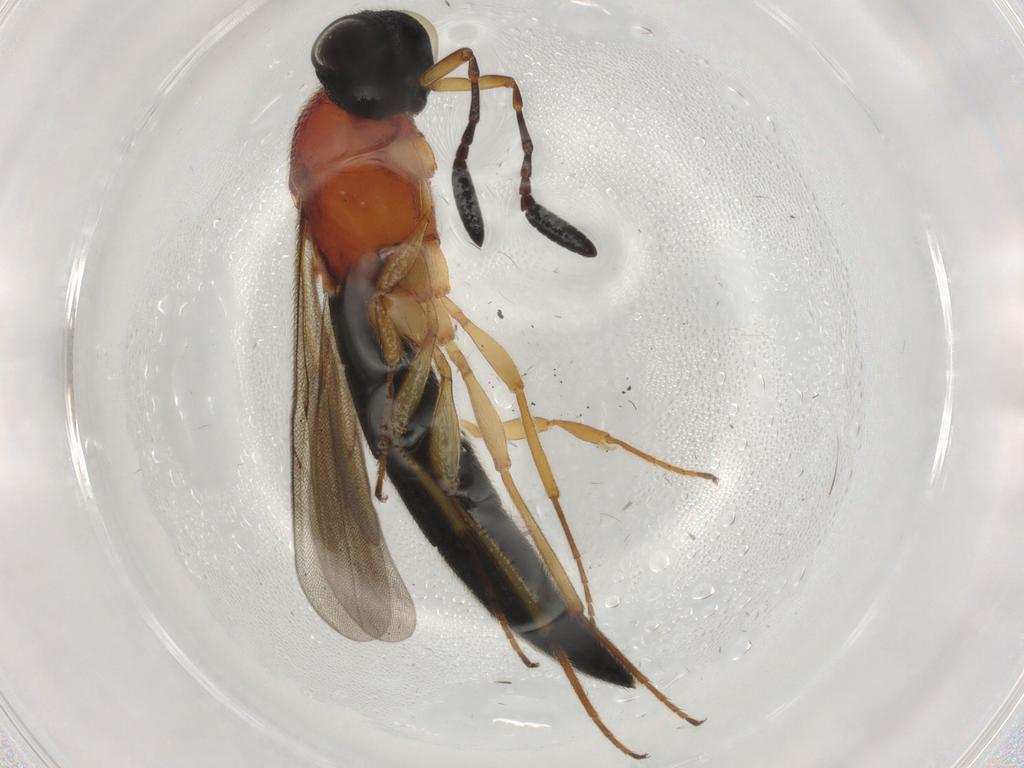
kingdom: Animalia
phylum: Arthropoda
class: Insecta
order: Hymenoptera
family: Scelionidae
